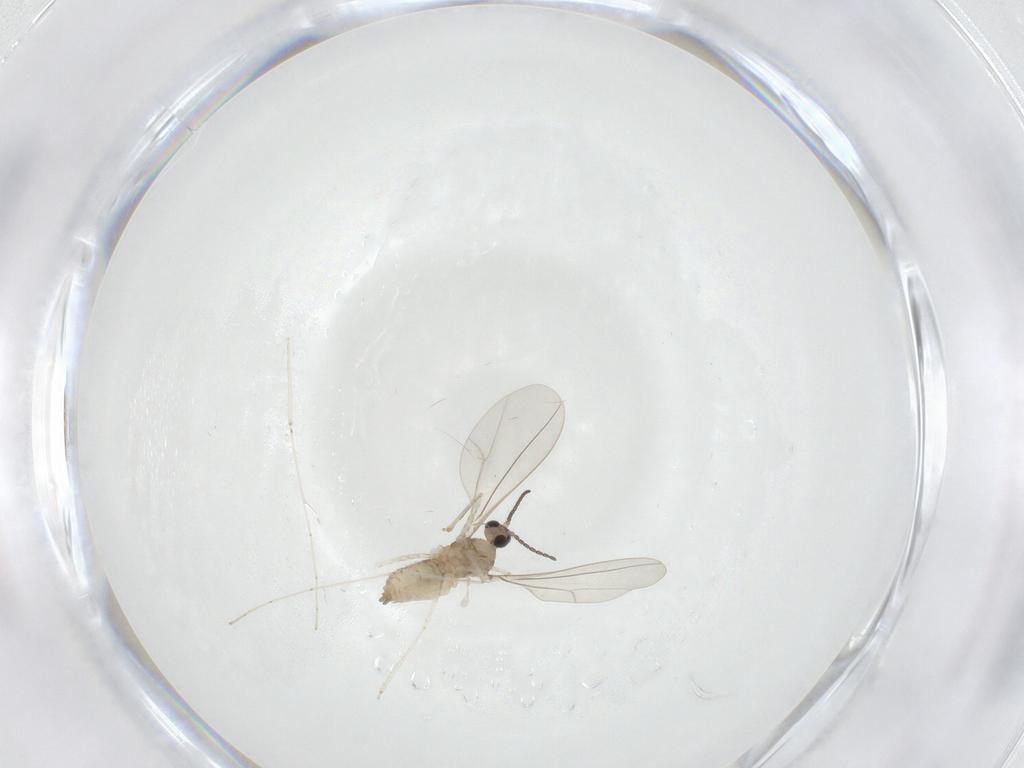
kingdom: Animalia
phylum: Arthropoda
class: Insecta
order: Diptera
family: Cecidomyiidae
